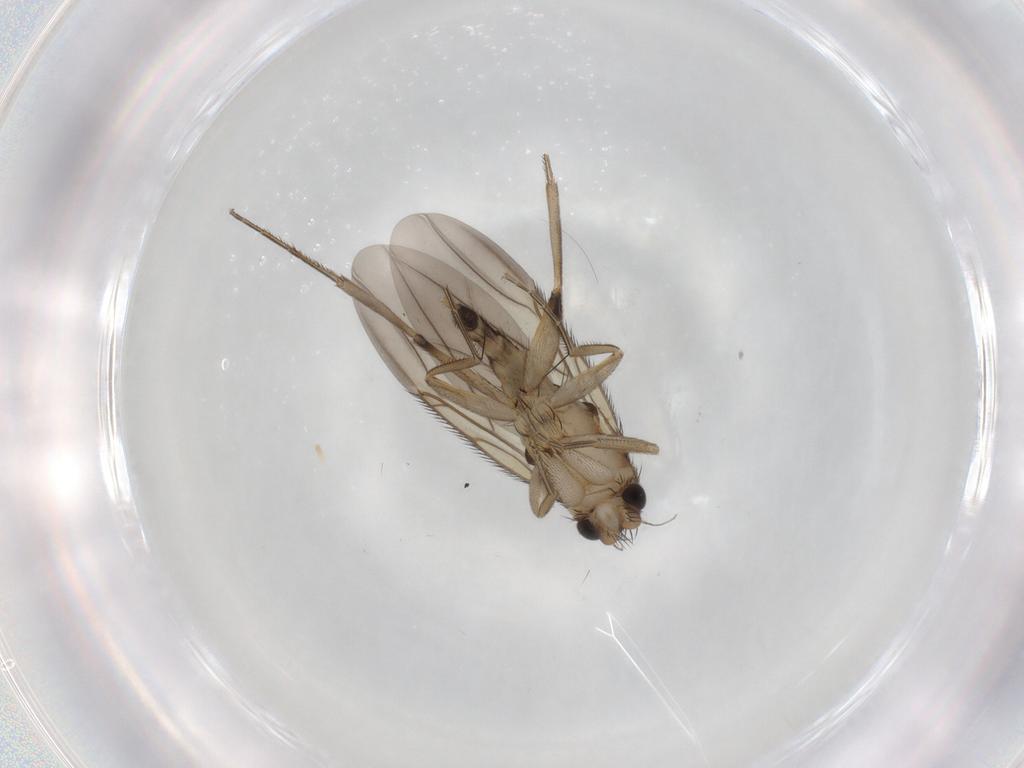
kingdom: Animalia
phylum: Arthropoda
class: Insecta
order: Diptera
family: Phoridae
